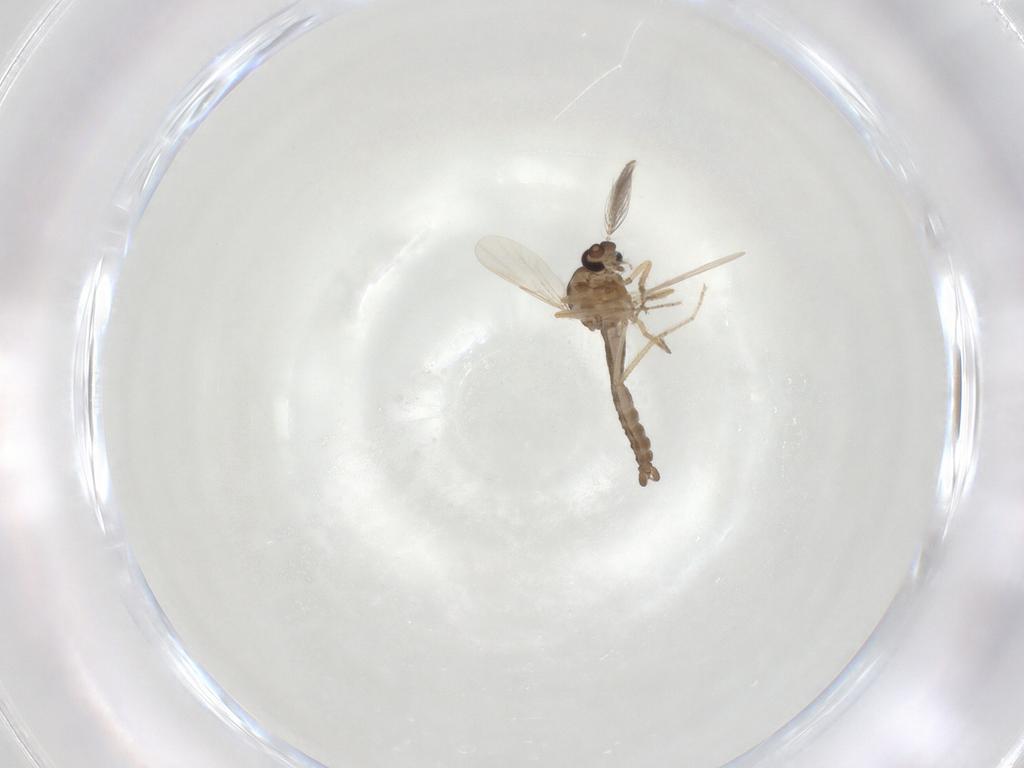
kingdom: Animalia
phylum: Arthropoda
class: Insecta
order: Diptera
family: Ceratopogonidae
